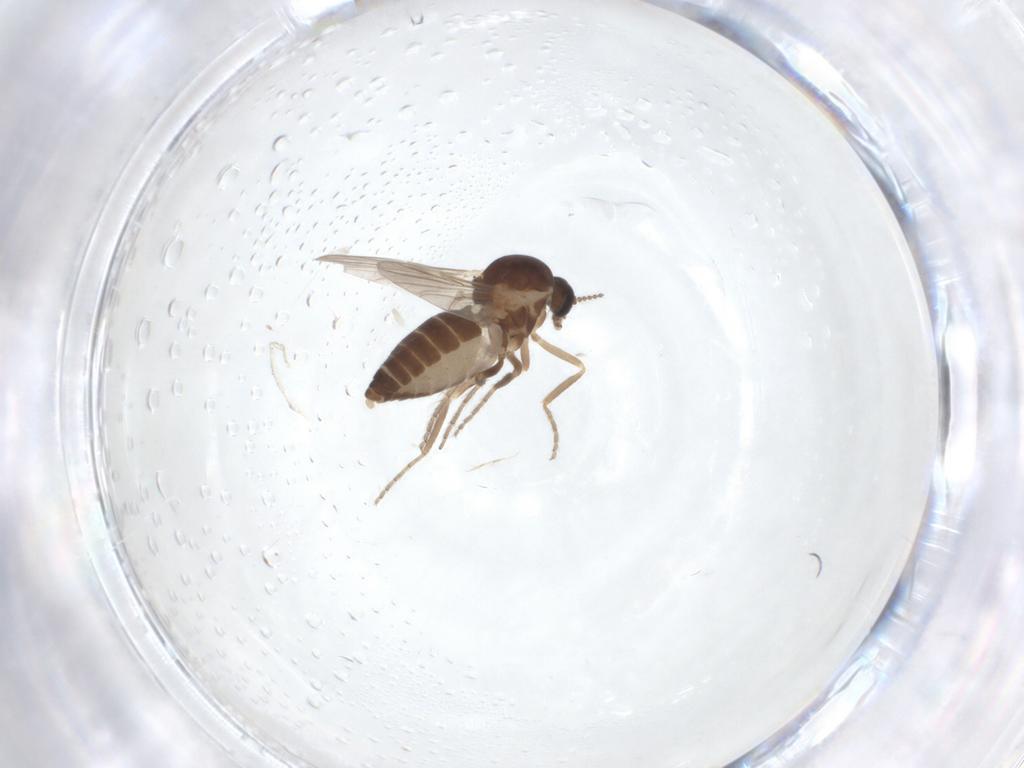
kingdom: Animalia
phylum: Arthropoda
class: Insecta
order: Diptera
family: Ceratopogonidae
